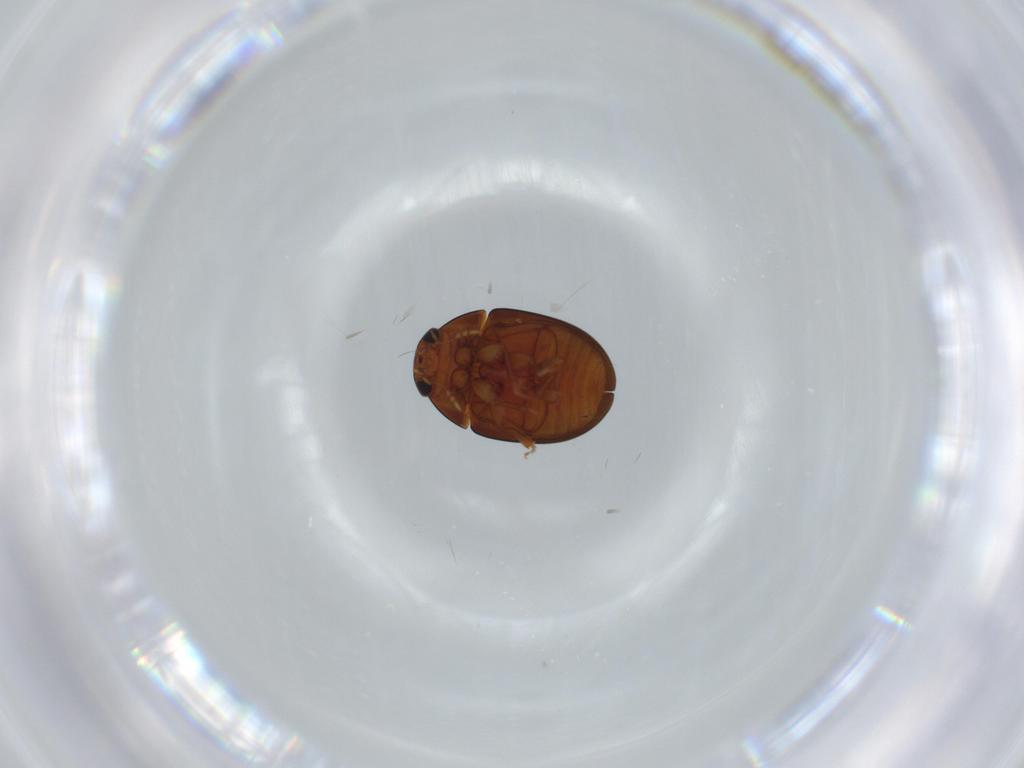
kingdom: Animalia
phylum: Arthropoda
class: Insecta
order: Coleoptera
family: Phalacridae
